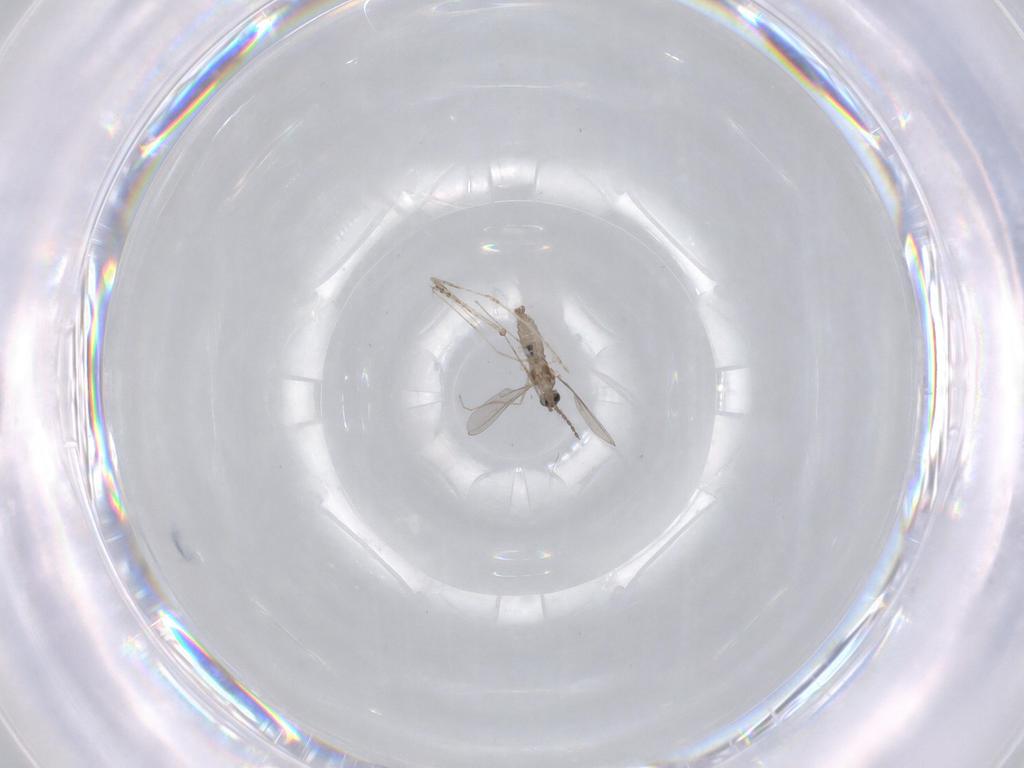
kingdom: Animalia
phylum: Arthropoda
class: Insecta
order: Diptera
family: Cecidomyiidae
